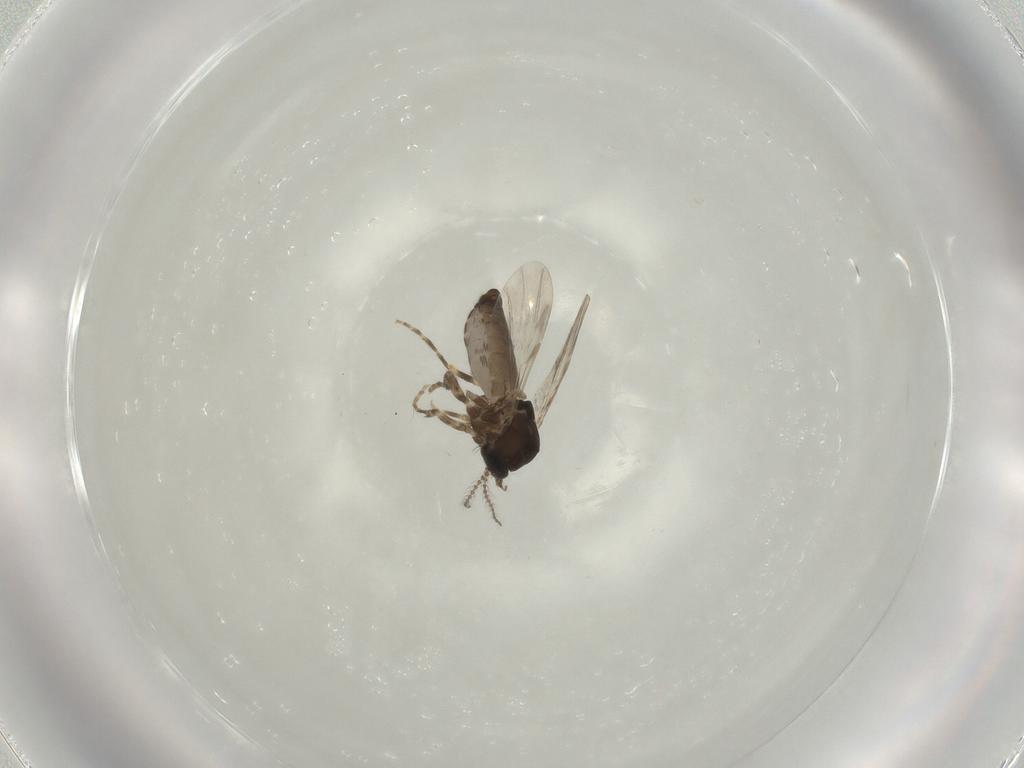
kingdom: Animalia
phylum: Arthropoda
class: Insecta
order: Diptera
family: Ceratopogonidae
